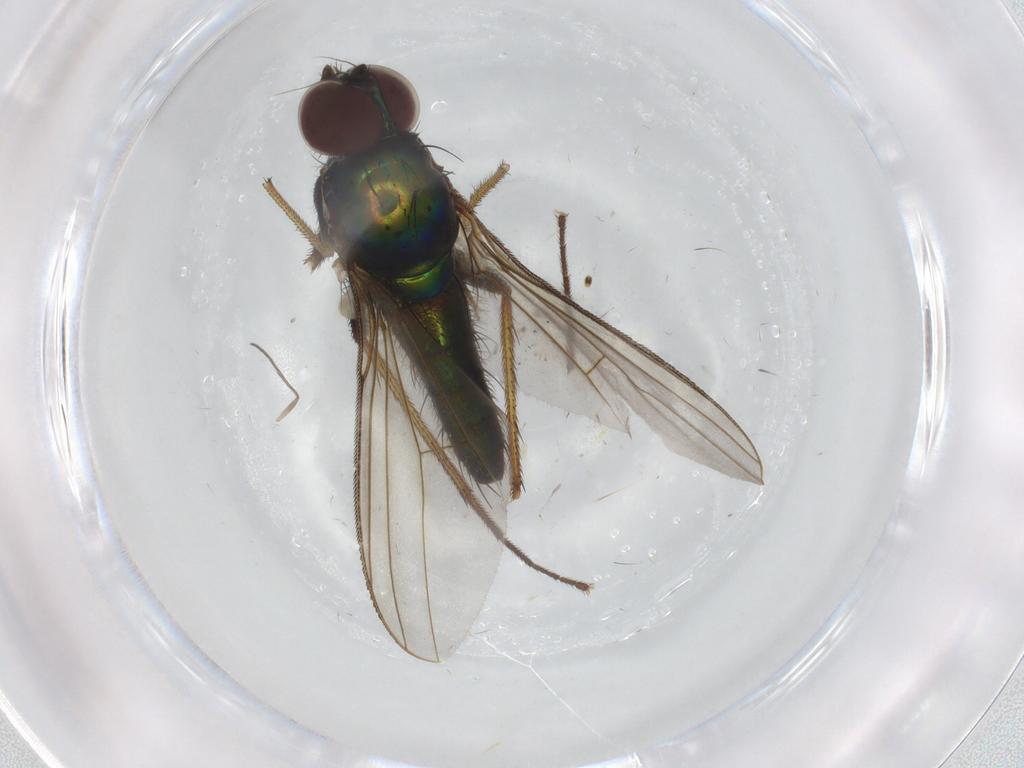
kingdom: Animalia
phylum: Arthropoda
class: Insecta
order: Diptera
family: Dolichopodidae
